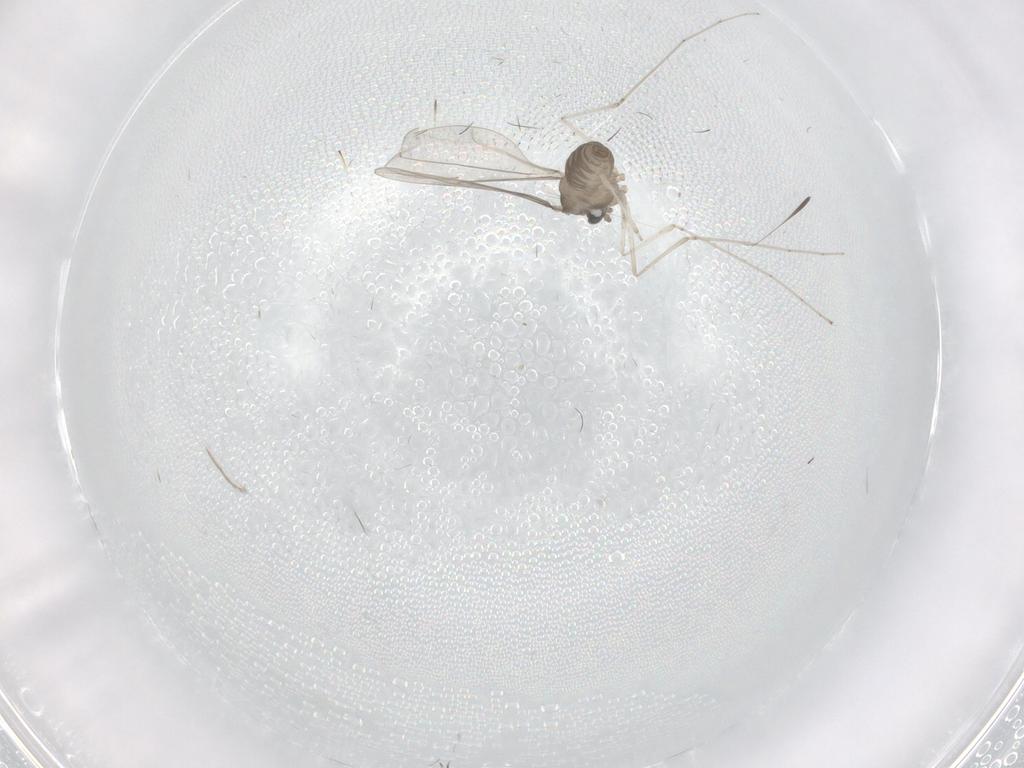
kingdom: Animalia
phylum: Arthropoda
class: Insecta
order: Diptera
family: Cecidomyiidae
